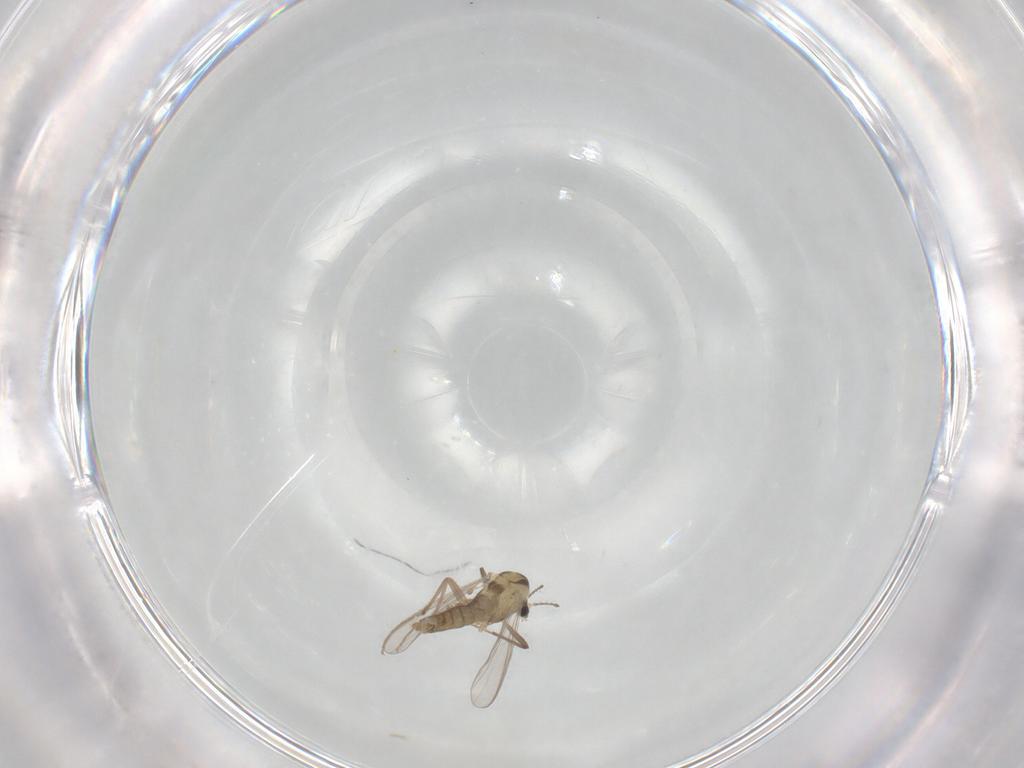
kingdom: Animalia
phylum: Arthropoda
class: Insecta
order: Diptera
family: Chironomidae
